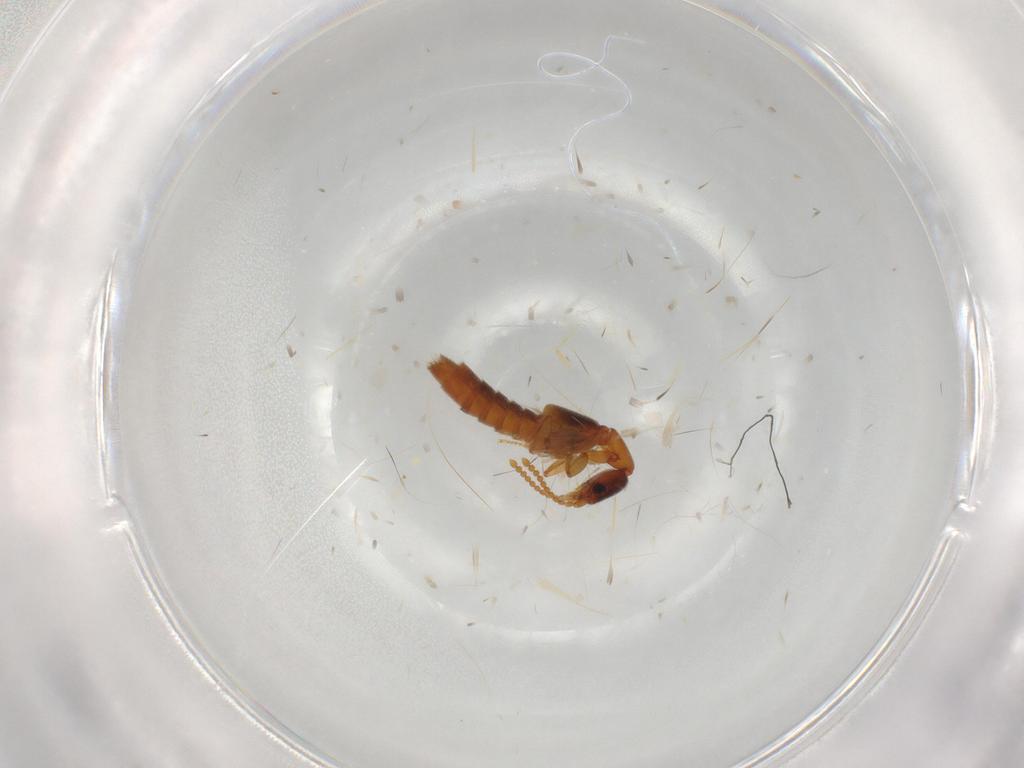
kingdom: Animalia
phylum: Arthropoda
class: Insecta
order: Coleoptera
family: Staphylinidae
